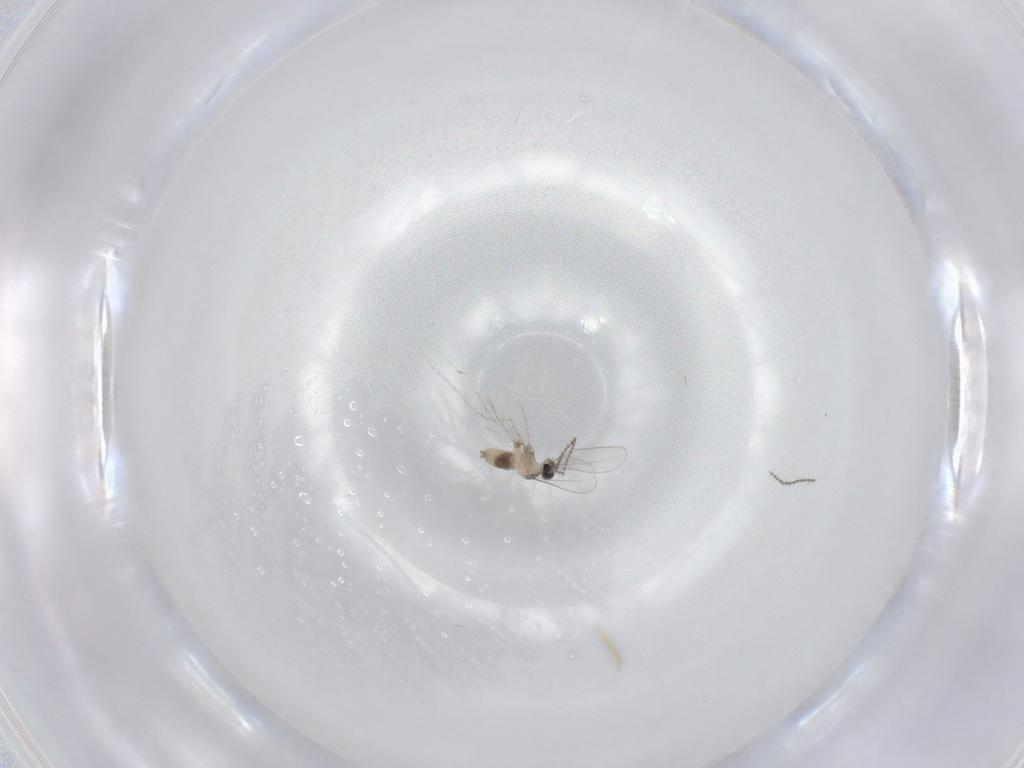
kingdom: Animalia
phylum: Arthropoda
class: Insecta
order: Diptera
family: Cecidomyiidae
